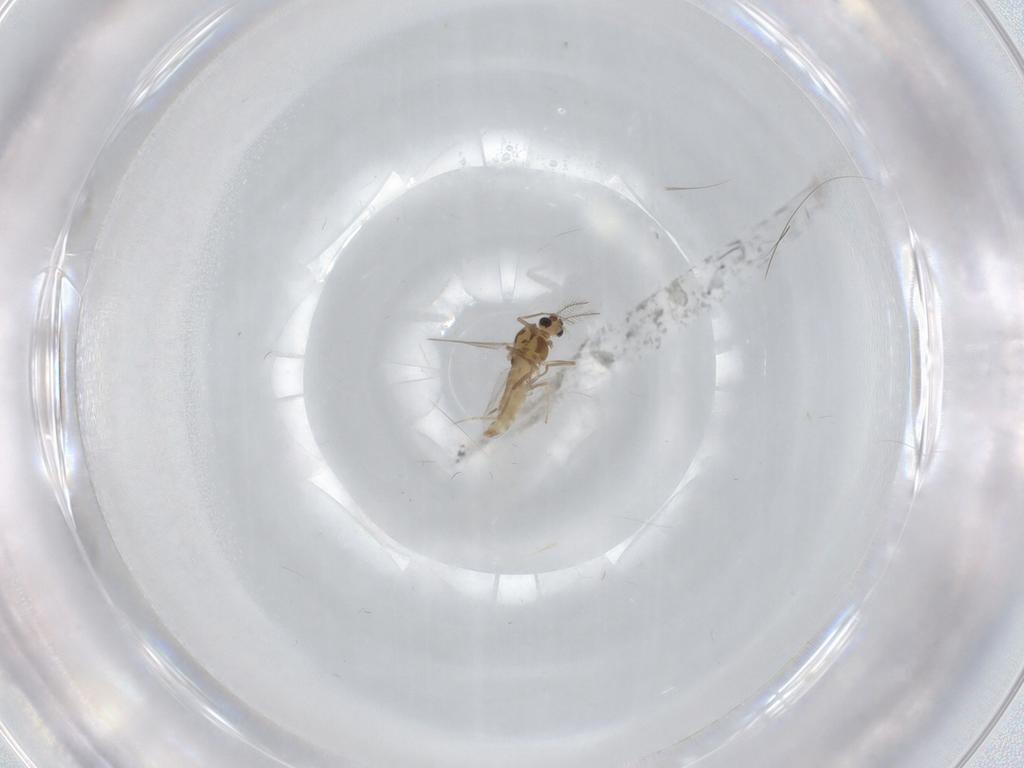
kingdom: Animalia
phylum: Arthropoda
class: Insecta
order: Diptera
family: Chironomidae
